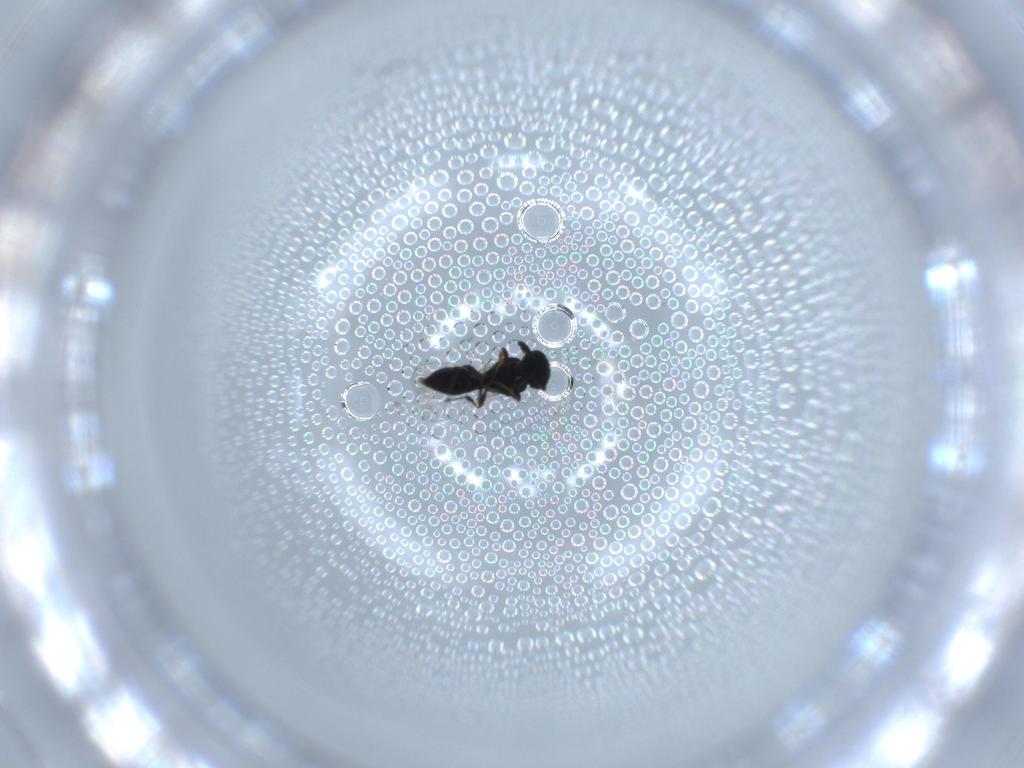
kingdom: Animalia
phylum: Arthropoda
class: Insecta
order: Hymenoptera
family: Platygastridae
